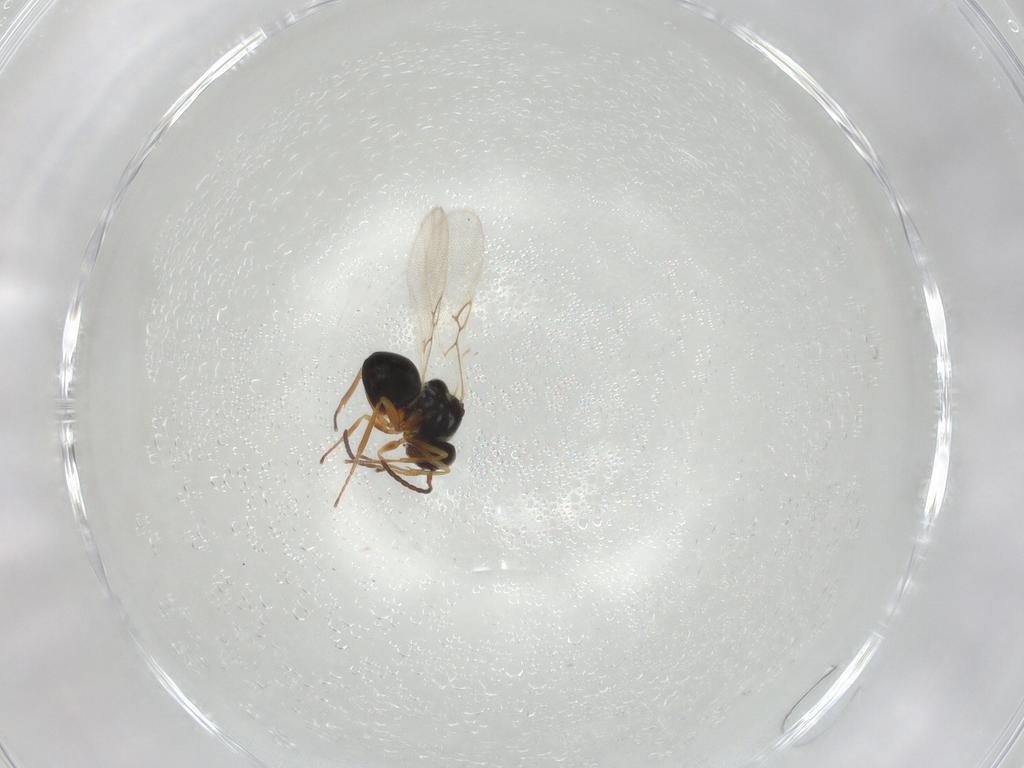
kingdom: Animalia
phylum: Arthropoda
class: Insecta
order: Hymenoptera
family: Figitidae
